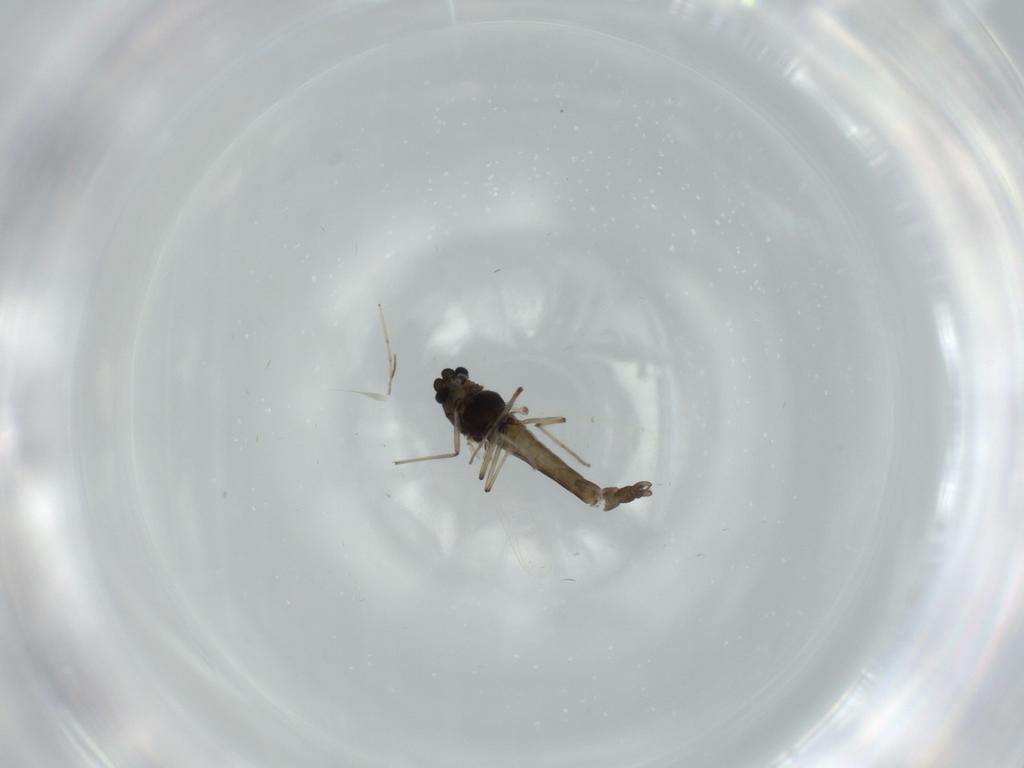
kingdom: Animalia
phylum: Arthropoda
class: Insecta
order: Diptera
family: Chironomidae
